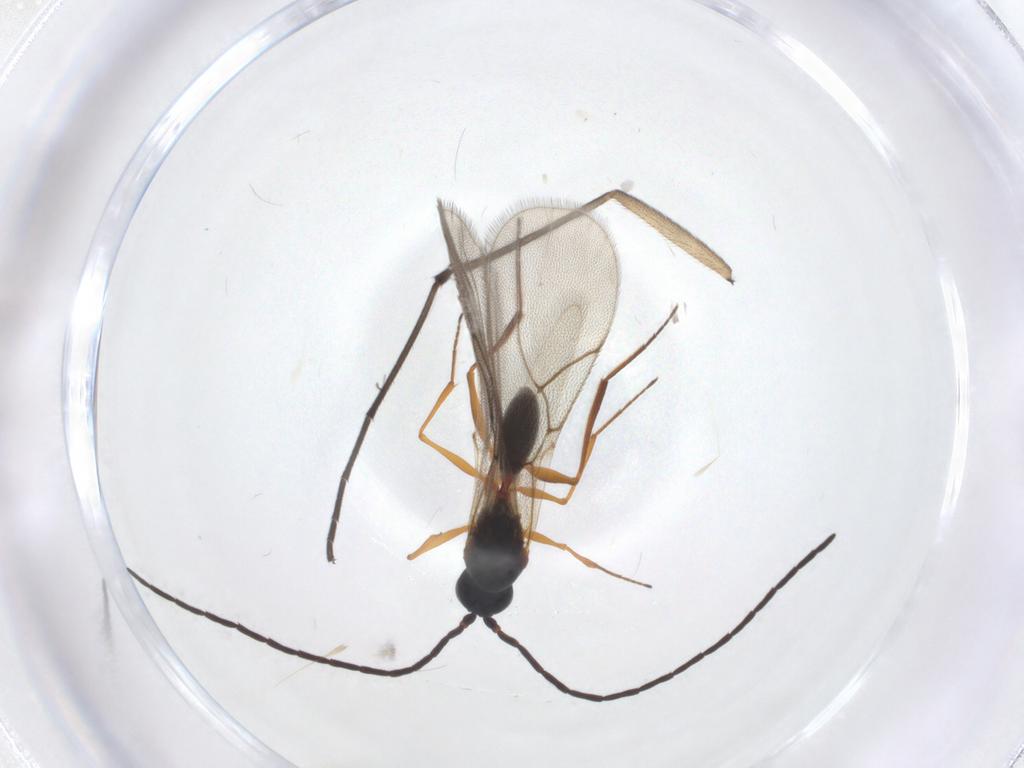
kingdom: Animalia
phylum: Arthropoda
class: Insecta
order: Hymenoptera
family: Figitidae
